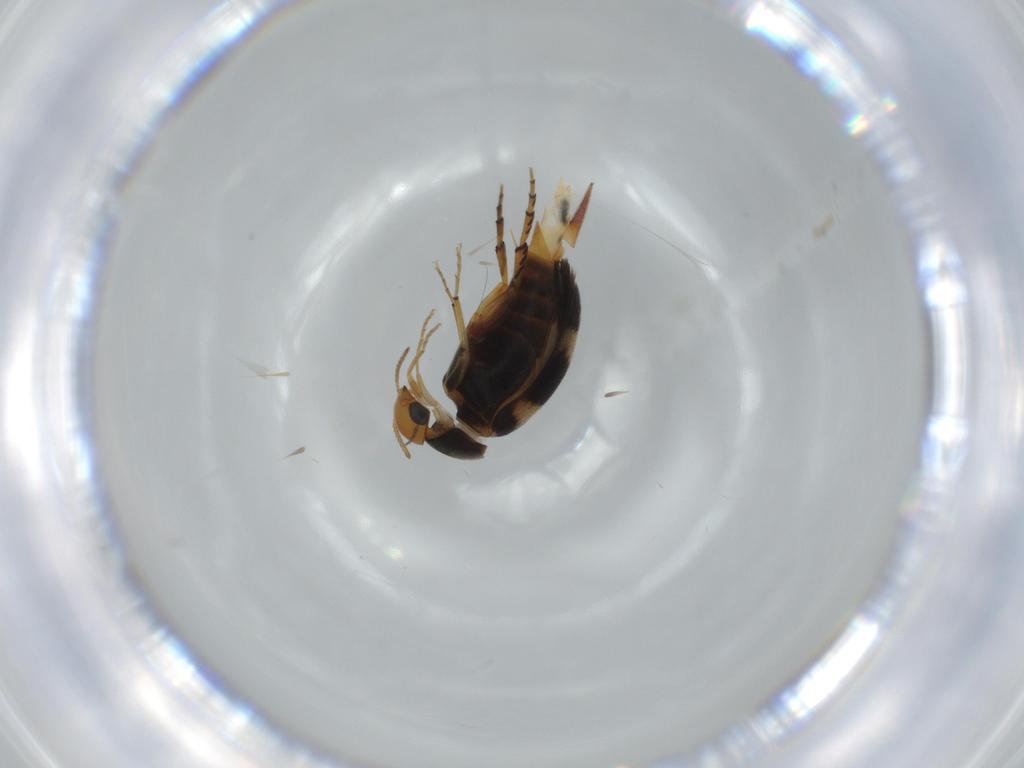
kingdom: Animalia
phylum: Arthropoda
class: Insecta
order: Coleoptera
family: Mordellidae
